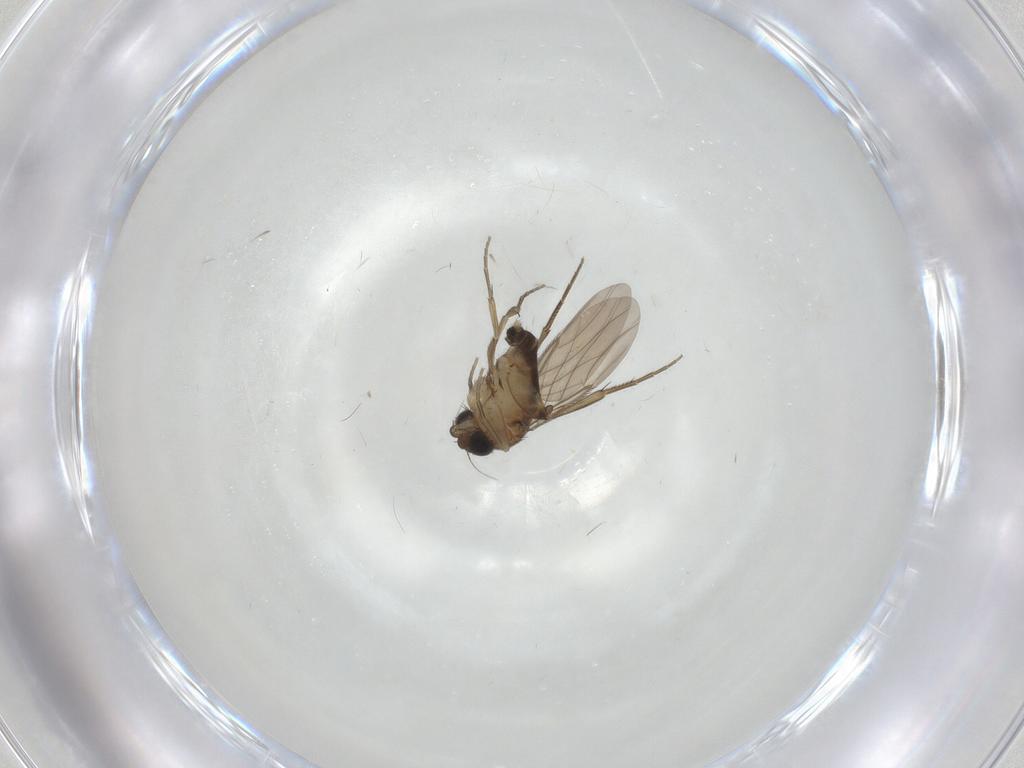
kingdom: Animalia
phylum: Arthropoda
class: Insecta
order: Diptera
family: Phoridae
